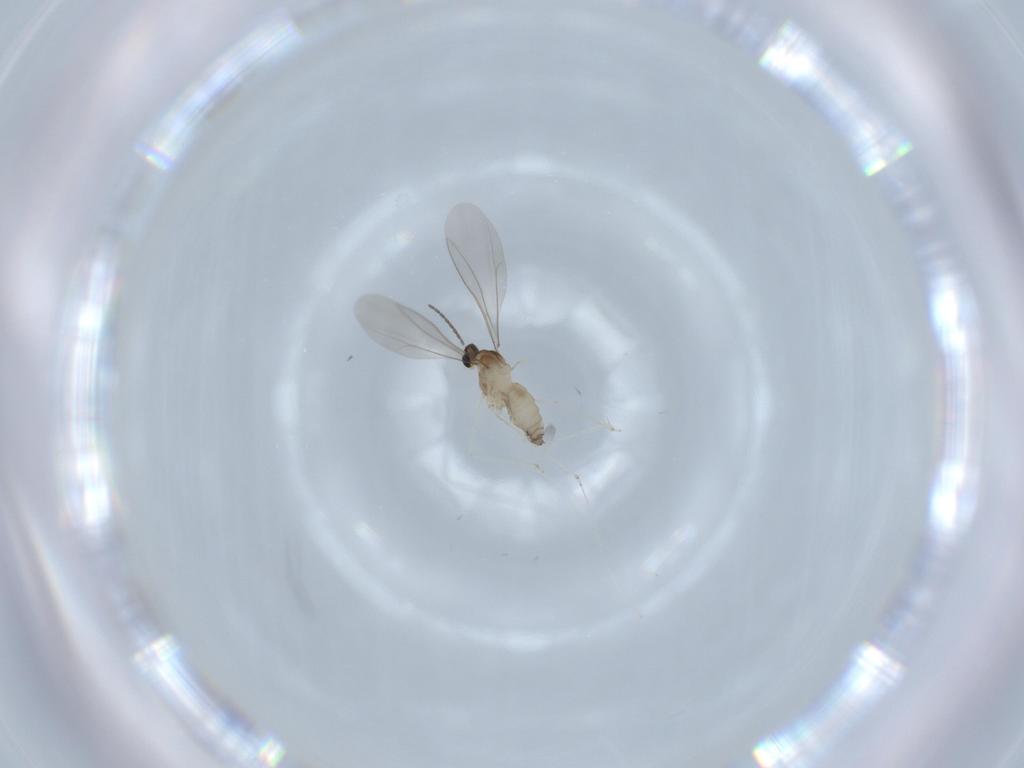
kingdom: Animalia
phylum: Arthropoda
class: Insecta
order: Diptera
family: Cecidomyiidae
